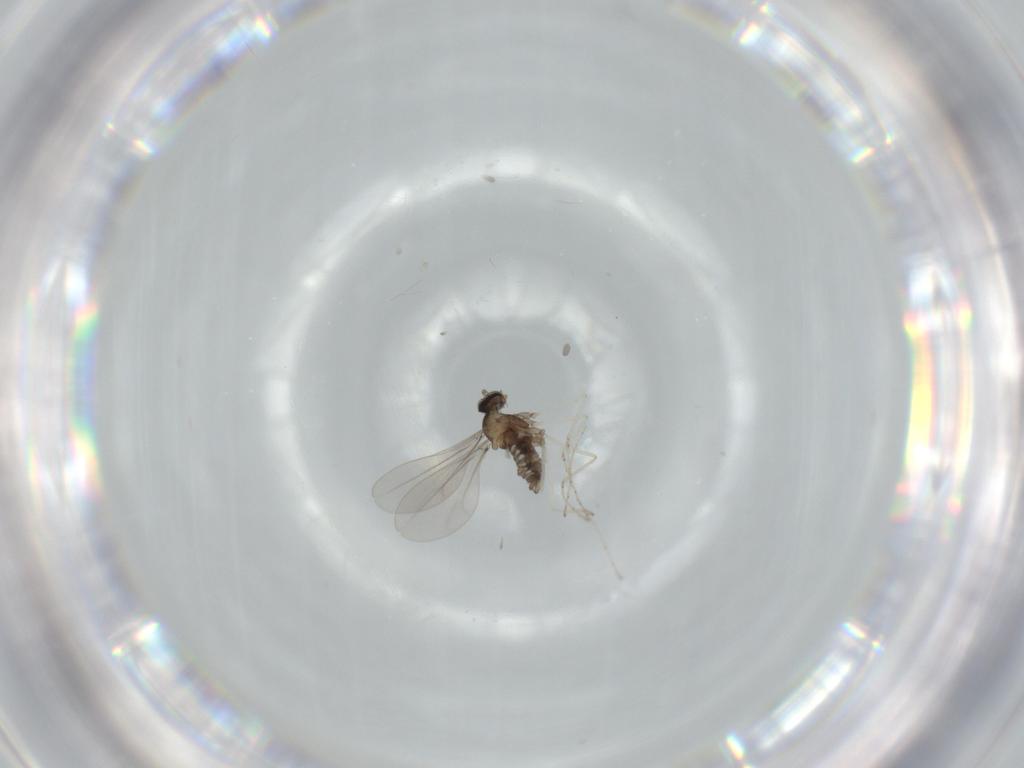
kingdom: Animalia
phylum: Arthropoda
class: Insecta
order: Diptera
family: Cecidomyiidae
